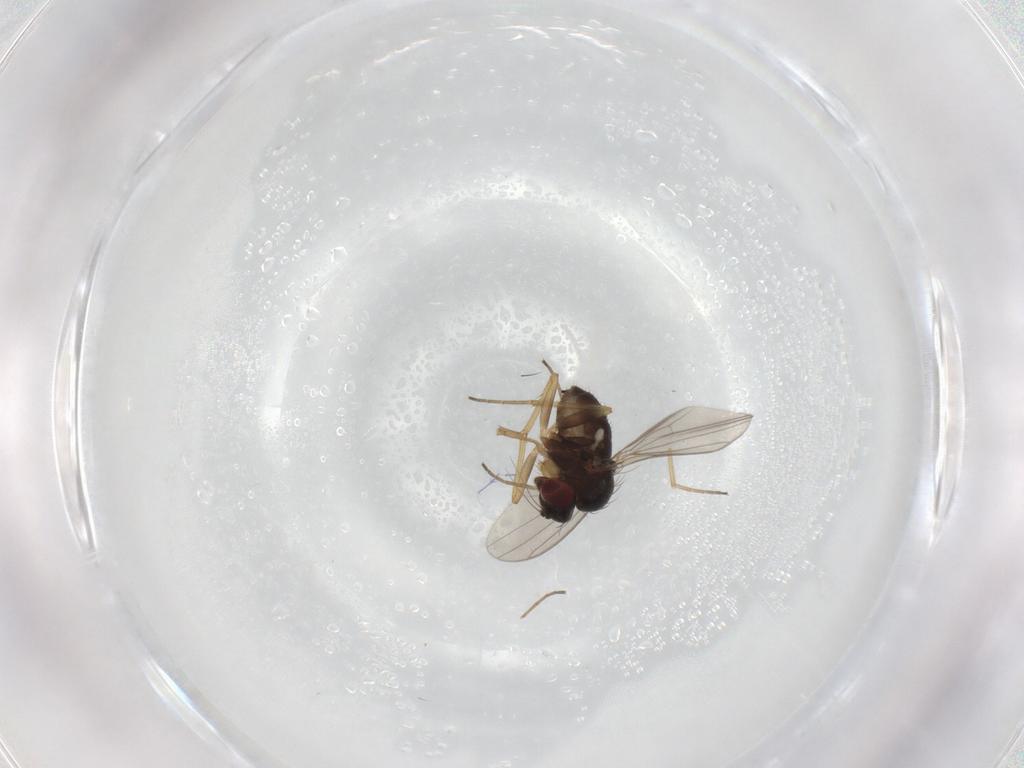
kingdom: Animalia
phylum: Arthropoda
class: Insecta
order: Diptera
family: Dolichopodidae
